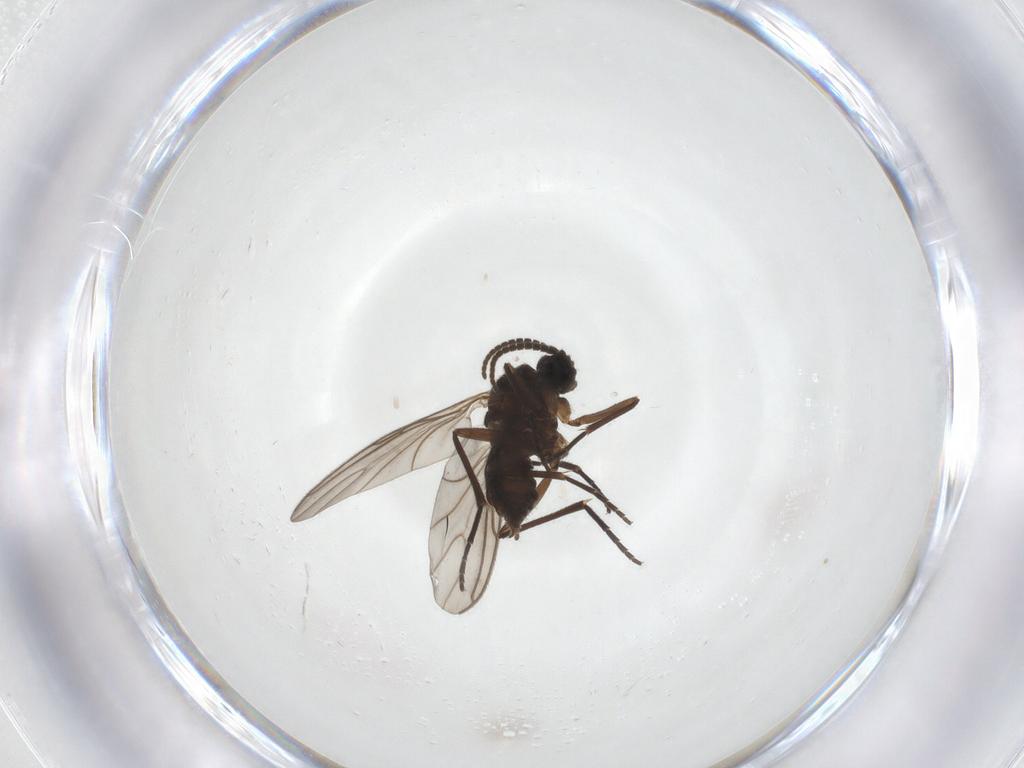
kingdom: Animalia
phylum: Arthropoda
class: Insecta
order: Diptera
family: Sciaridae
